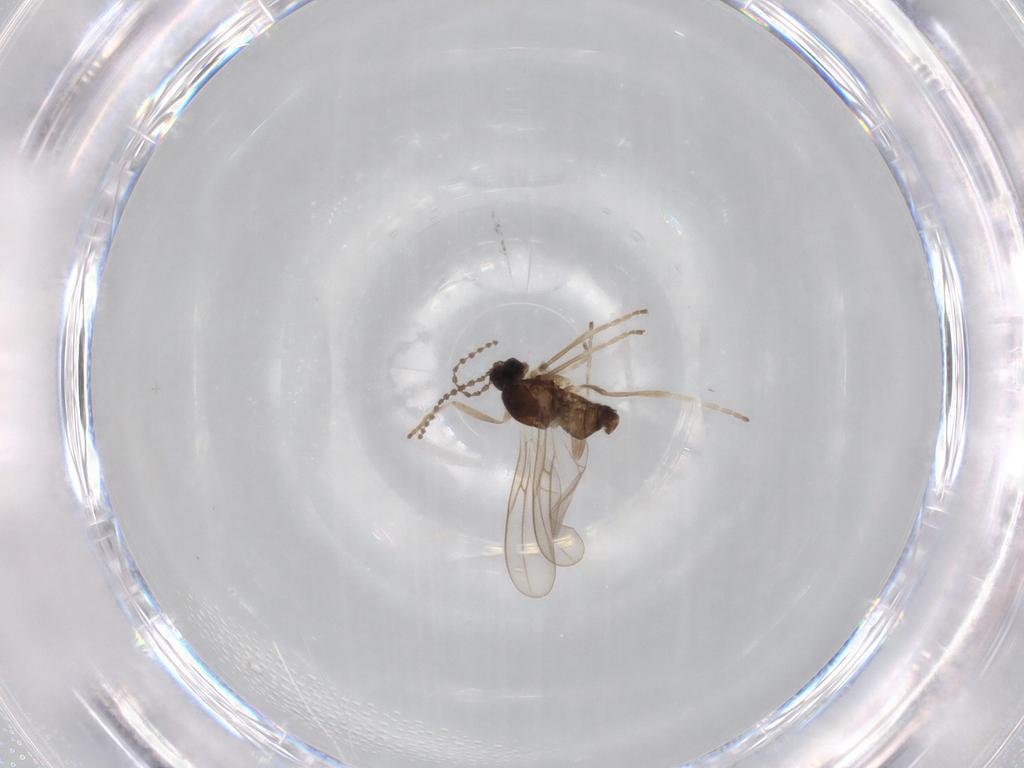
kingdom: Animalia
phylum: Arthropoda
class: Insecta
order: Diptera
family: Cecidomyiidae
